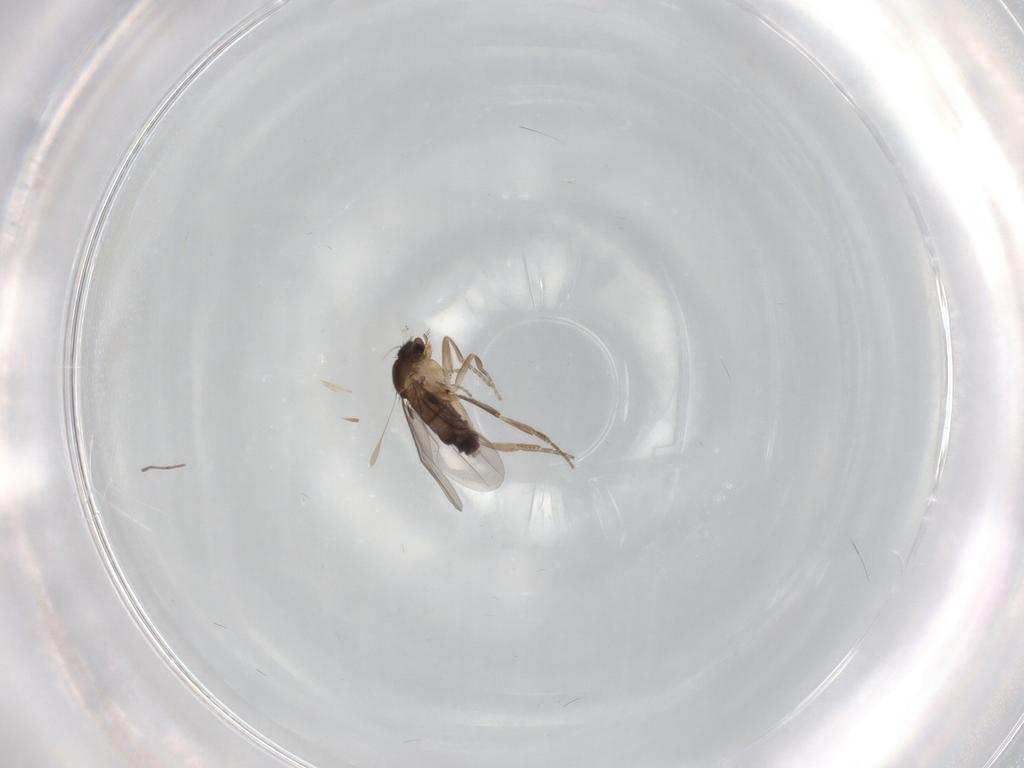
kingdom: Animalia
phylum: Arthropoda
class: Insecta
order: Diptera
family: Phoridae
